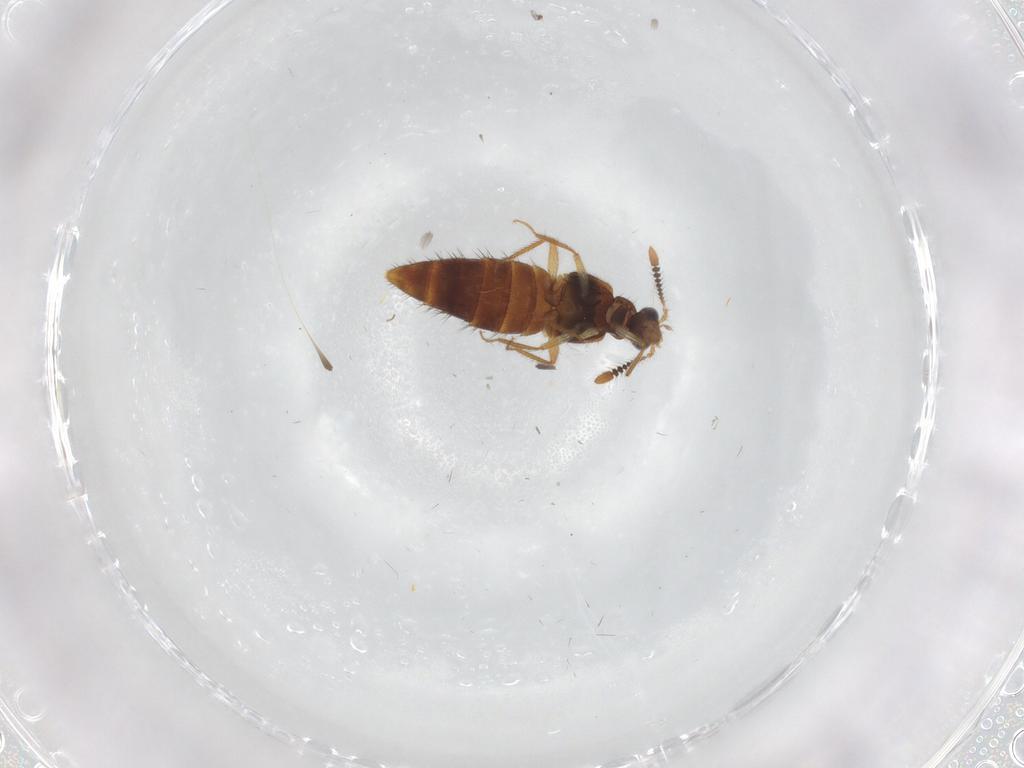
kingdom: Animalia
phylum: Arthropoda
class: Insecta
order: Coleoptera
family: Staphylinidae
